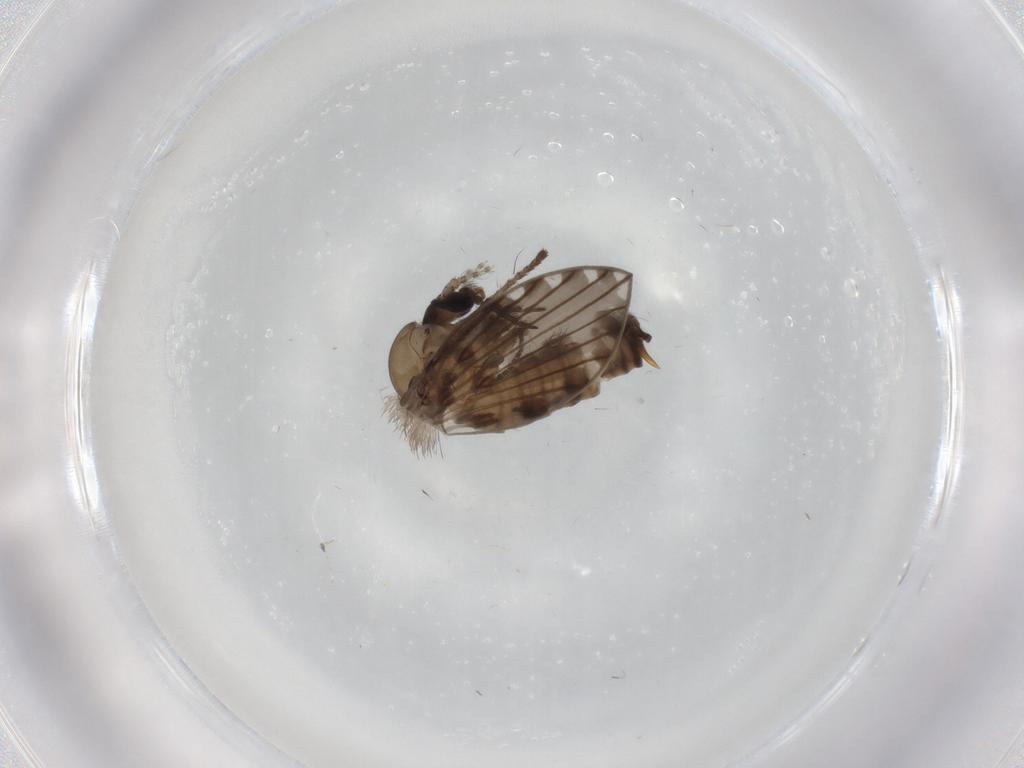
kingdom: Animalia
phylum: Arthropoda
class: Insecta
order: Diptera
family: Psychodidae
